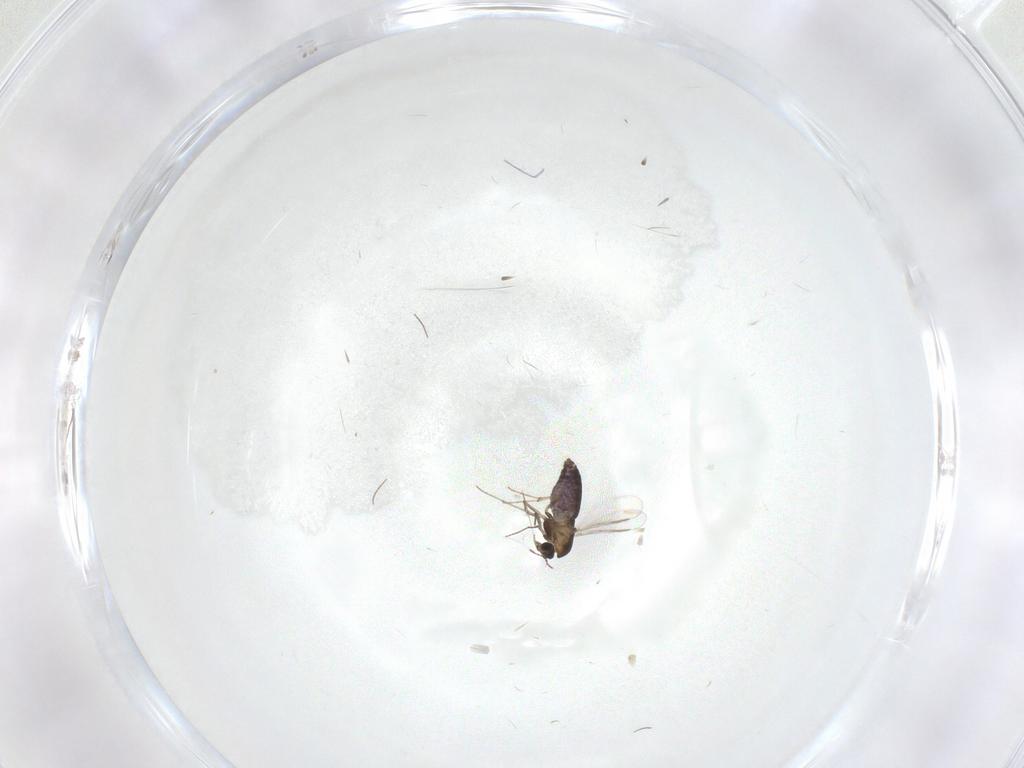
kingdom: Animalia
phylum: Arthropoda
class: Insecta
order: Diptera
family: Chironomidae
